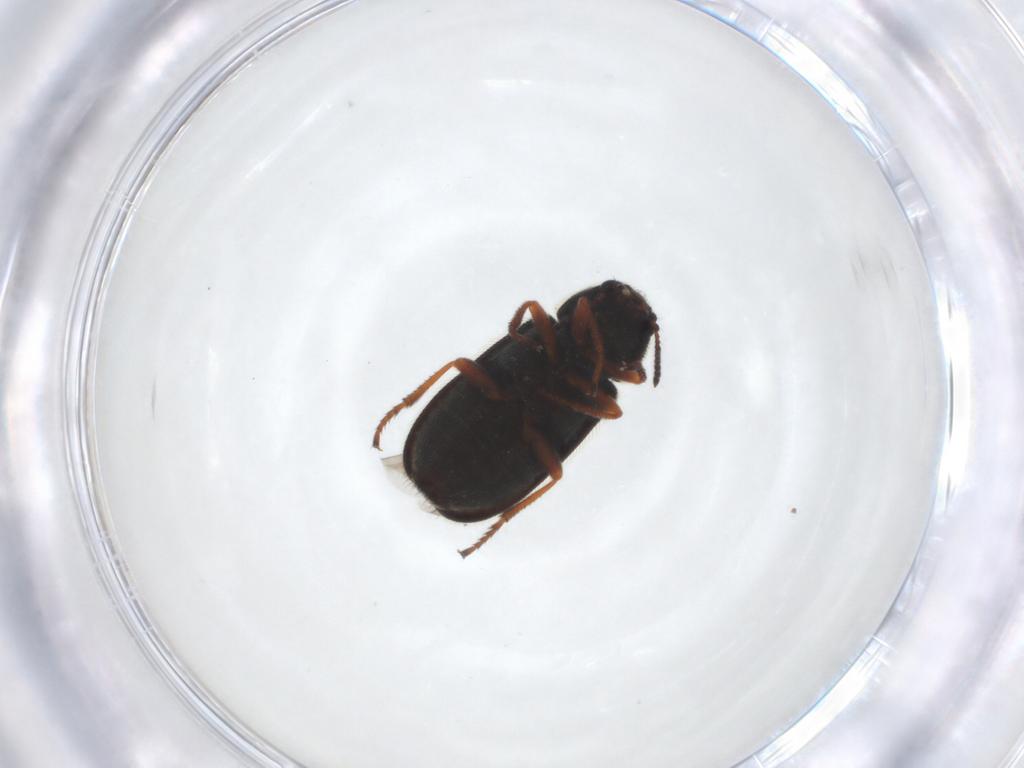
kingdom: Animalia
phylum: Arthropoda
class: Insecta
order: Coleoptera
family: Melyridae
